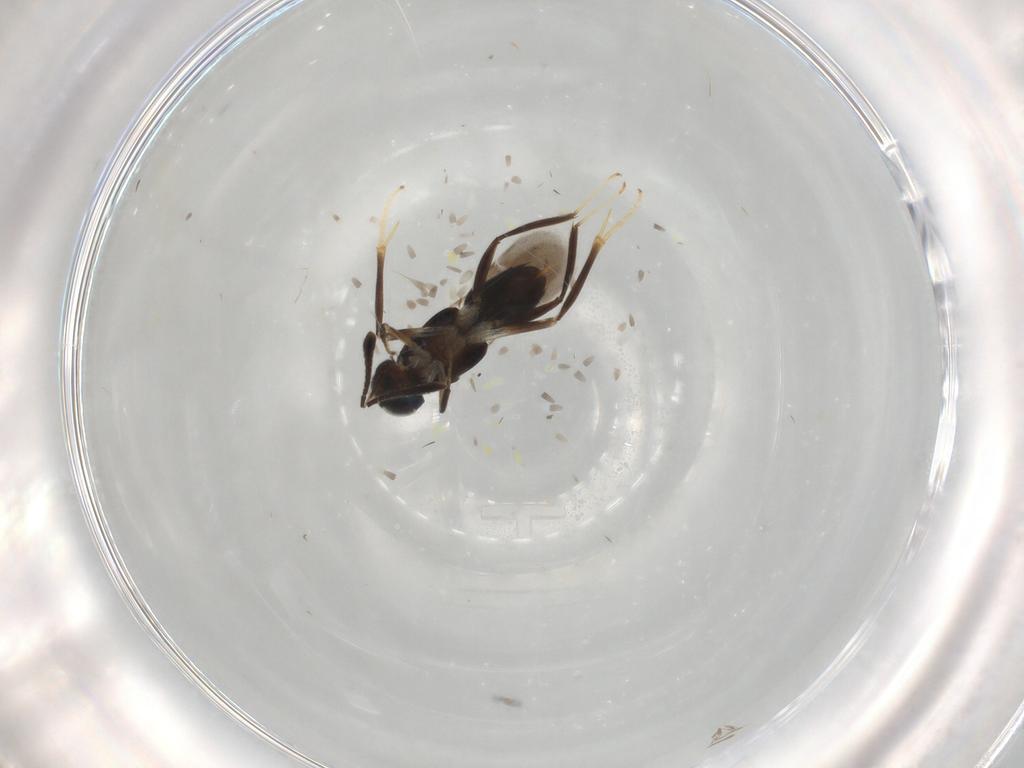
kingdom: Animalia
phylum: Arthropoda
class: Insecta
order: Hymenoptera
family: Encyrtidae
